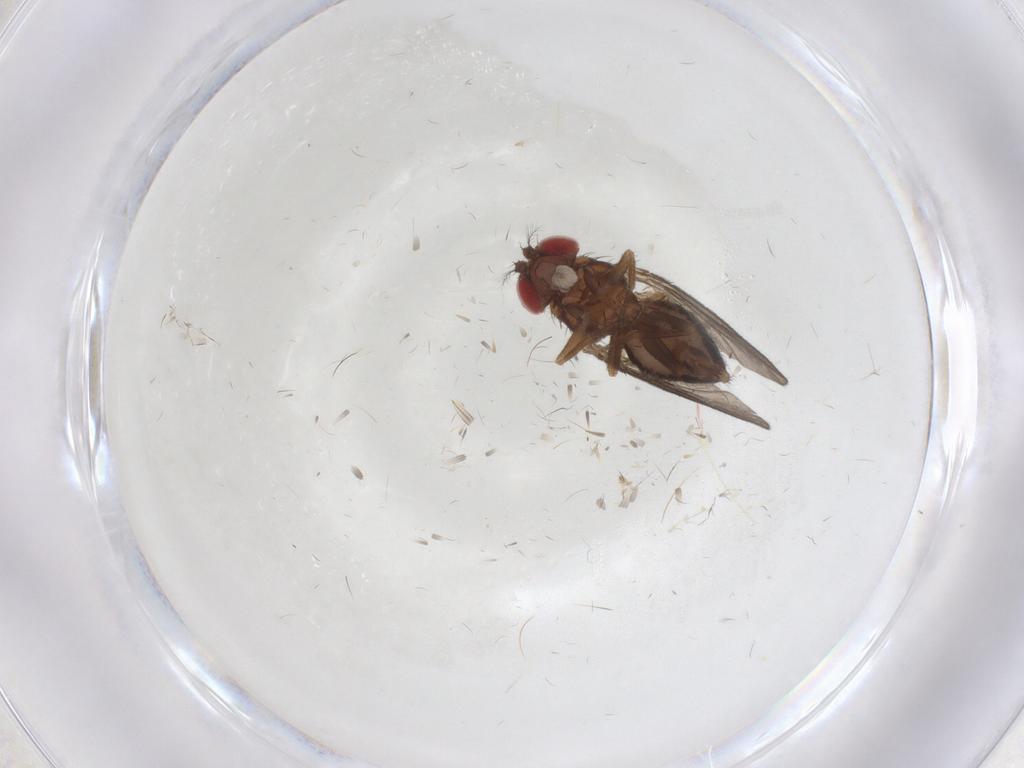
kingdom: Animalia
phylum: Arthropoda
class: Insecta
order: Diptera
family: Drosophilidae
